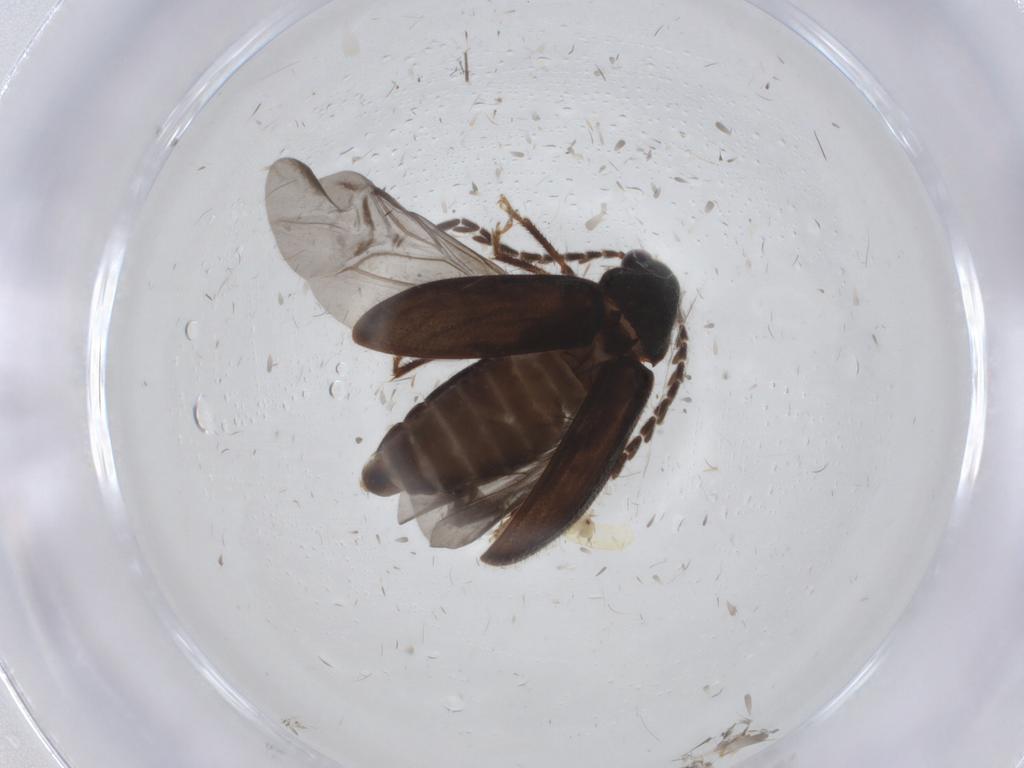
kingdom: Animalia
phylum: Arthropoda
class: Insecta
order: Coleoptera
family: Ptilodactylidae
